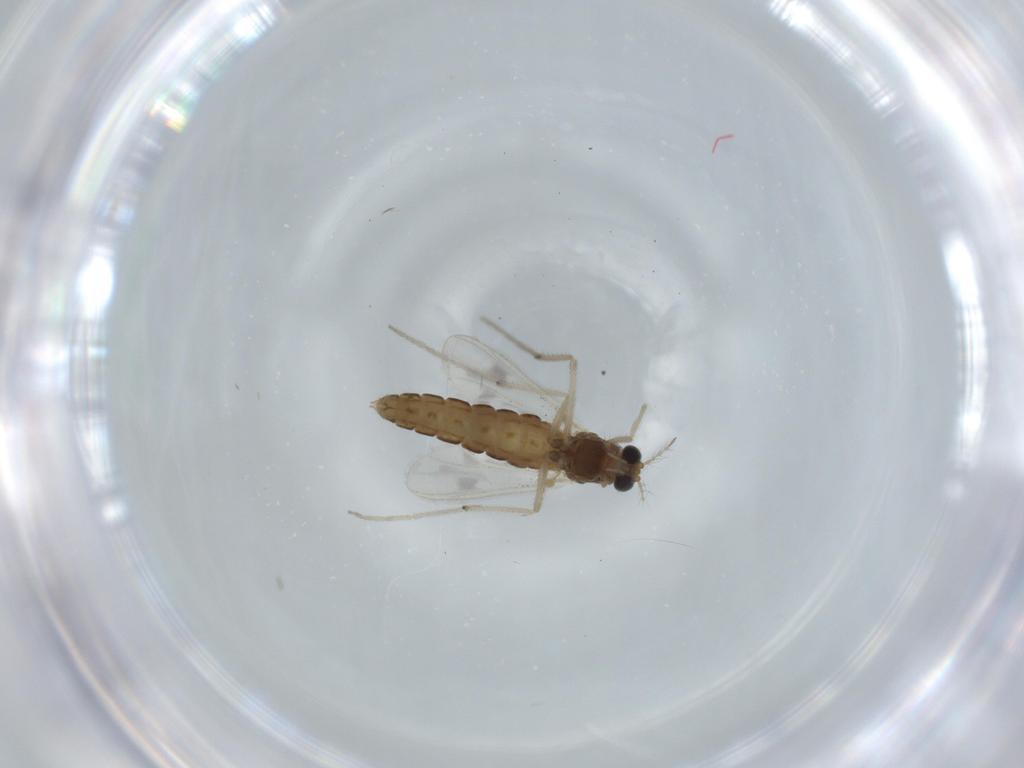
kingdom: Animalia
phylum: Arthropoda
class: Insecta
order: Diptera
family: Chironomidae
